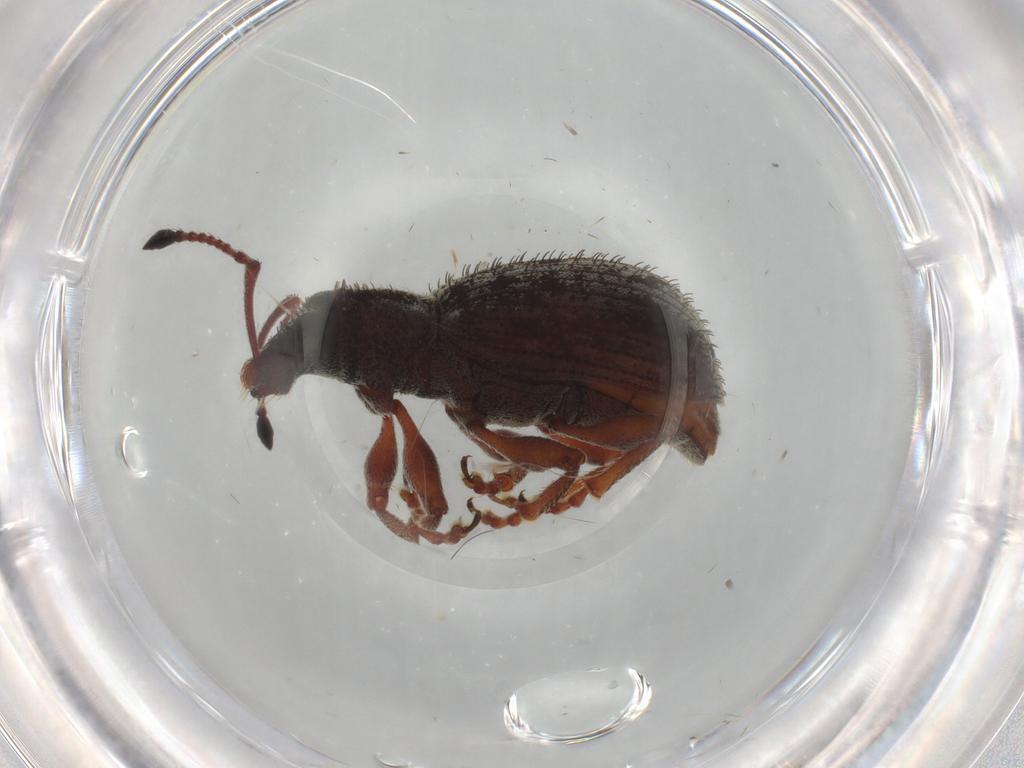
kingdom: Animalia
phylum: Arthropoda
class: Insecta
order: Coleoptera
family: Curculionidae
